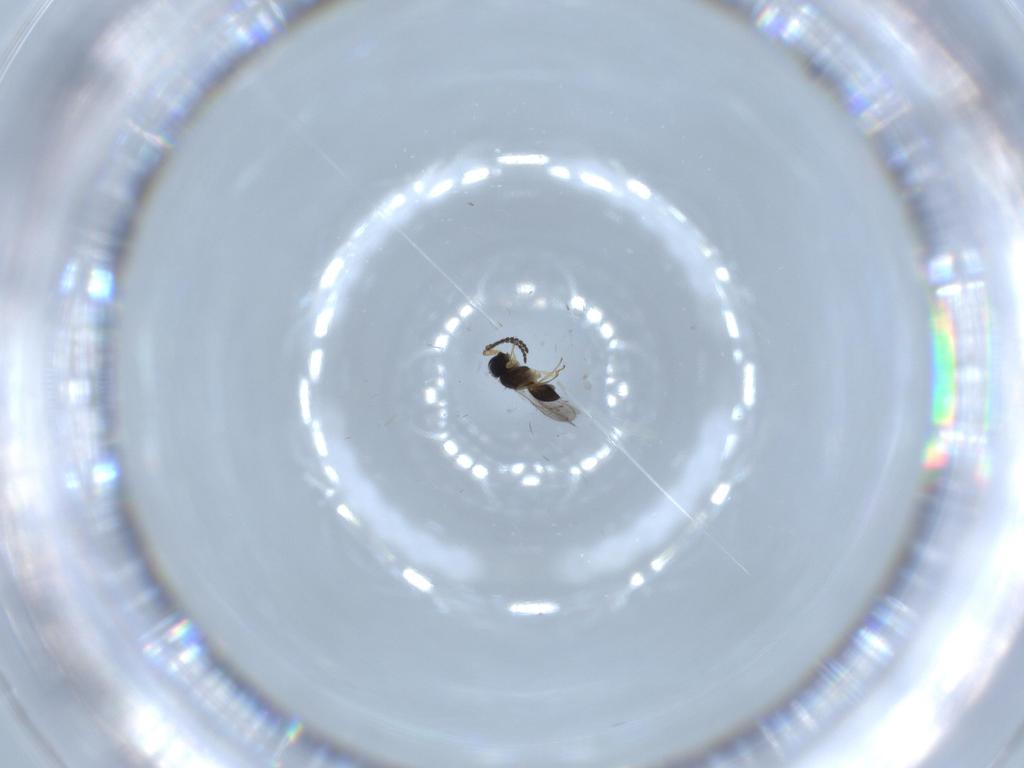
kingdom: Animalia
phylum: Arthropoda
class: Insecta
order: Hymenoptera
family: Scelionidae
